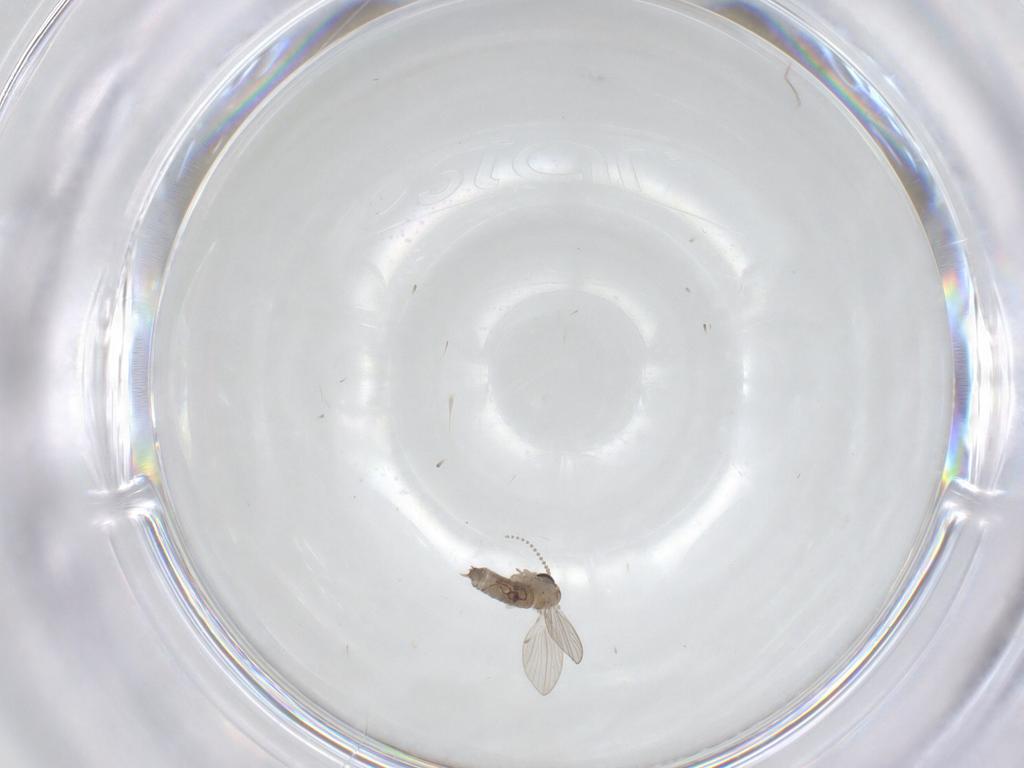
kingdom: Animalia
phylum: Arthropoda
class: Insecta
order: Diptera
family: Psychodidae
